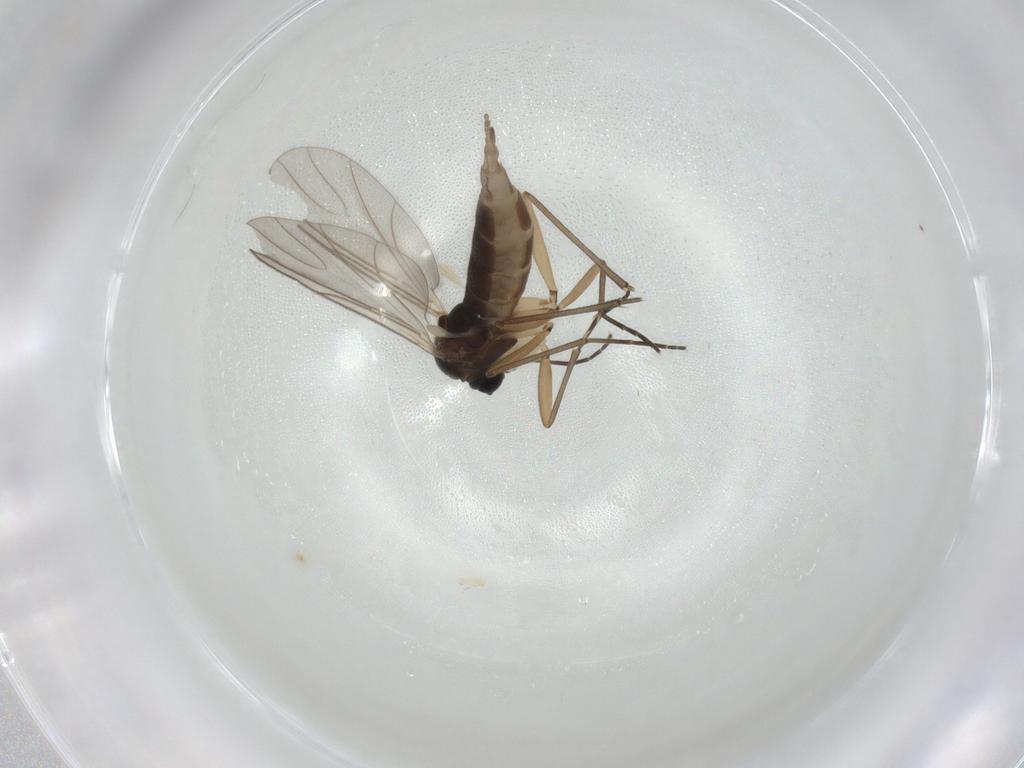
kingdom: Animalia
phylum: Arthropoda
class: Insecta
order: Diptera
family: Sciaridae
